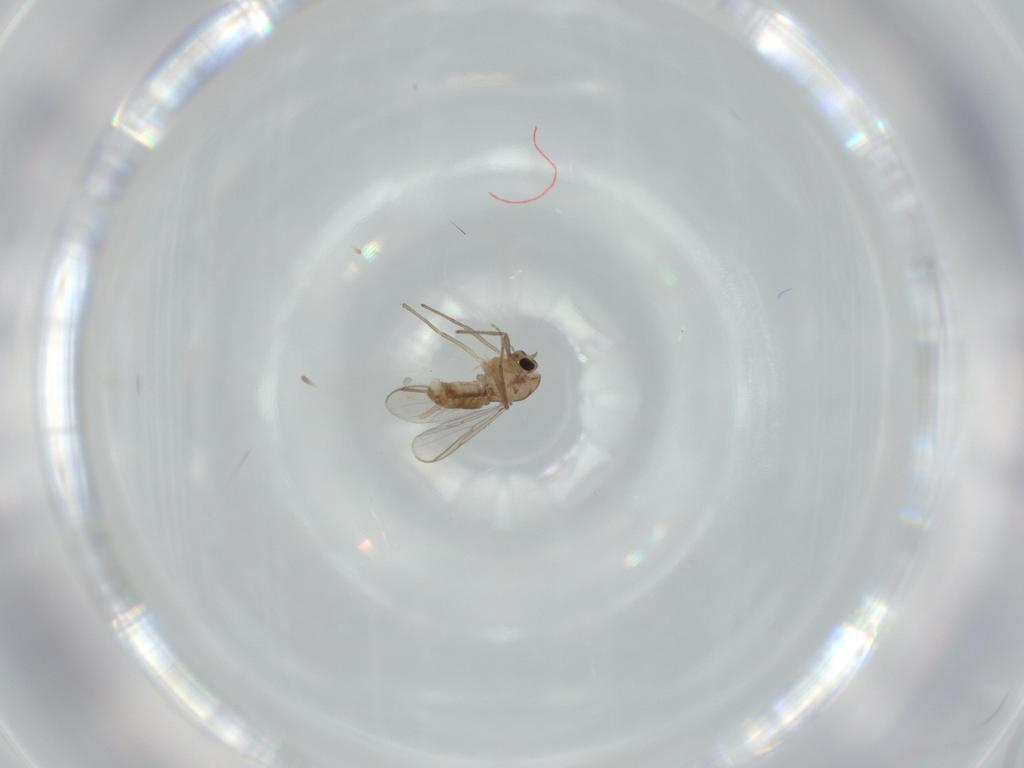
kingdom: Animalia
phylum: Arthropoda
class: Insecta
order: Diptera
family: Chironomidae
